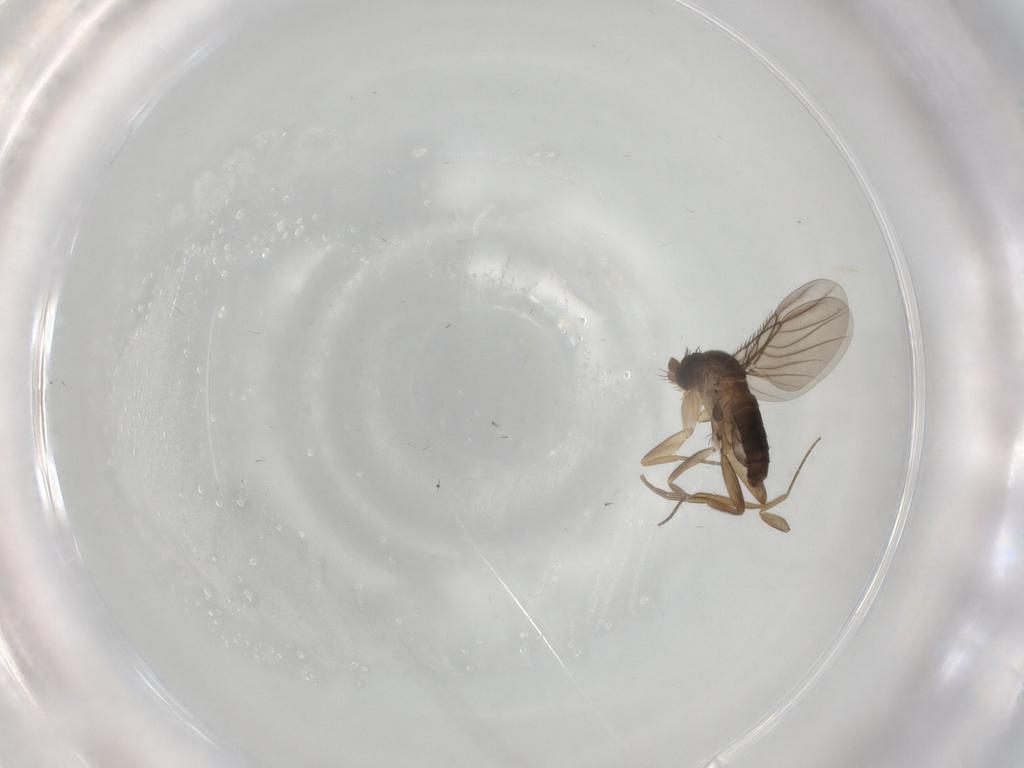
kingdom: Animalia
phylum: Arthropoda
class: Insecta
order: Diptera
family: Phoridae
